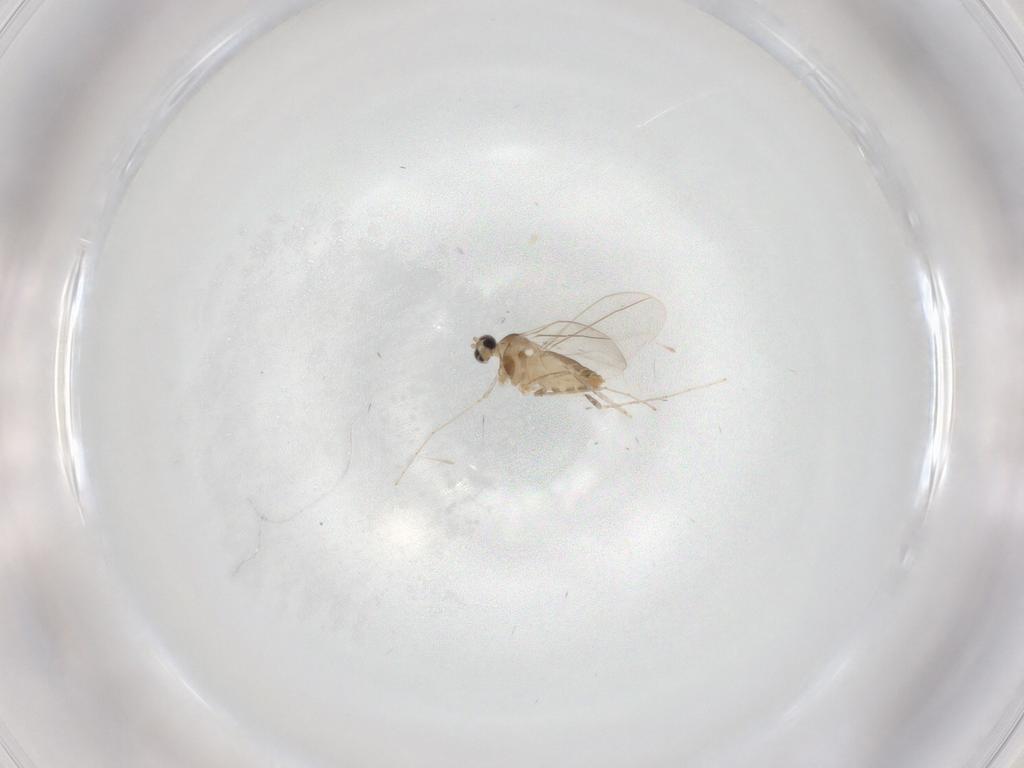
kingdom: Animalia
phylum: Arthropoda
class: Insecta
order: Diptera
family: Cecidomyiidae
